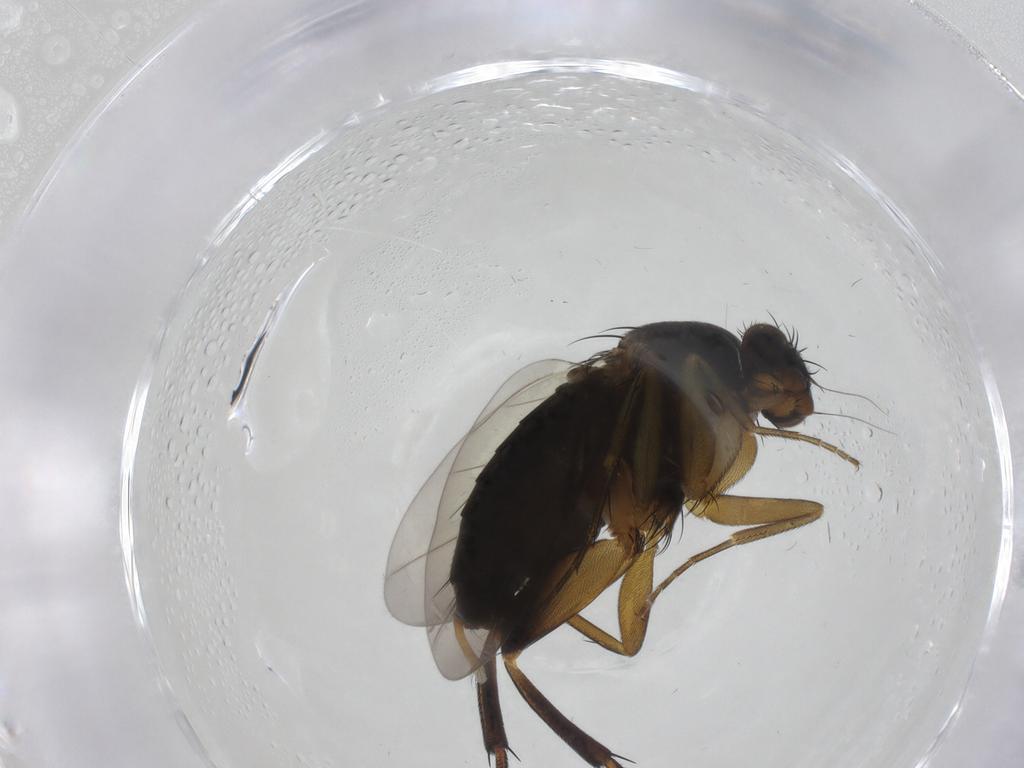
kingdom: Animalia
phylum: Arthropoda
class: Insecta
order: Diptera
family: Phoridae
